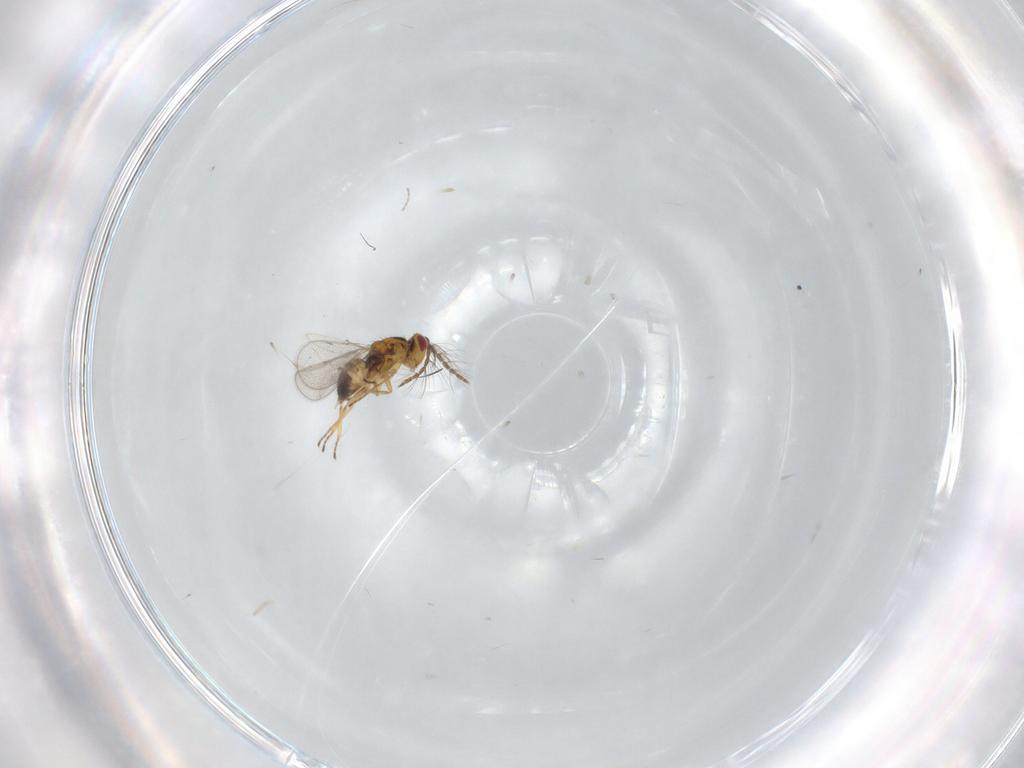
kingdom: Animalia
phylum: Arthropoda
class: Insecta
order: Hymenoptera
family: Eulophidae
